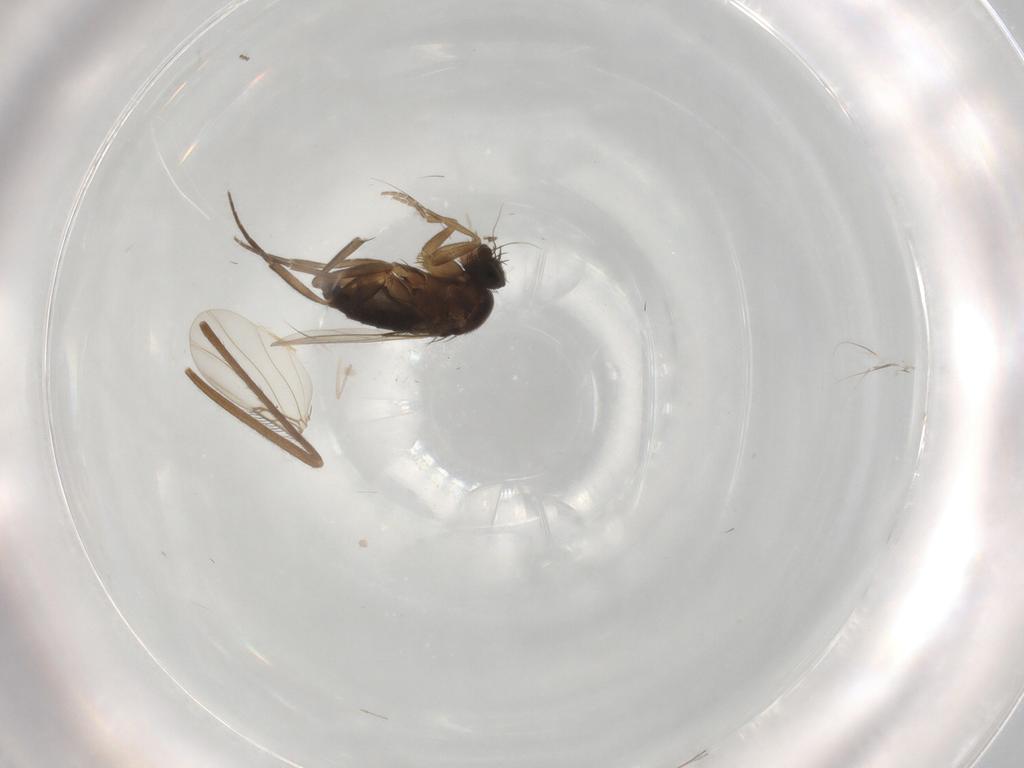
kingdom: Animalia
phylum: Arthropoda
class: Insecta
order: Diptera
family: Phoridae
